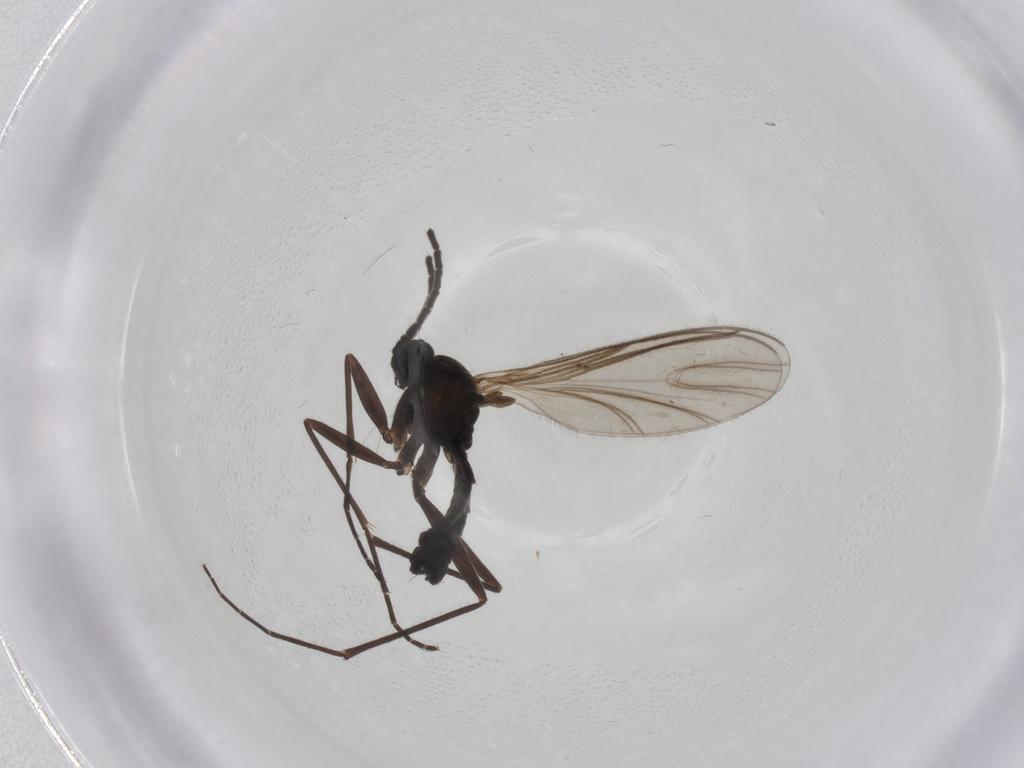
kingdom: Animalia
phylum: Arthropoda
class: Insecta
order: Diptera
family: Sciaridae
